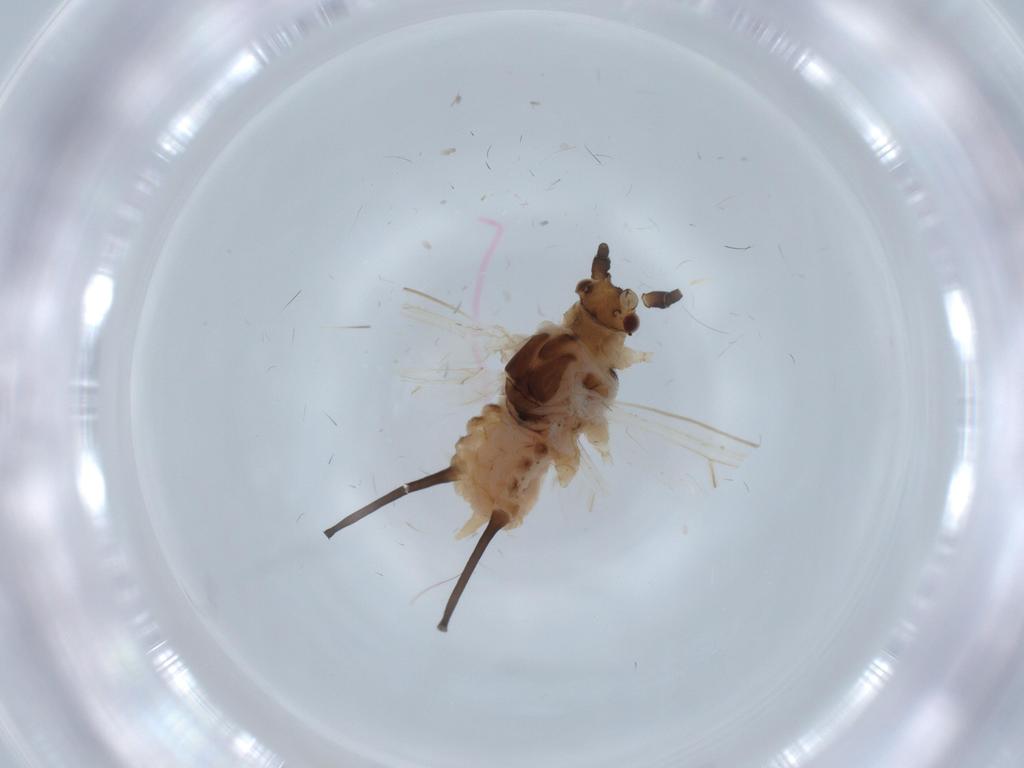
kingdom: Animalia
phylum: Arthropoda
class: Insecta
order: Hemiptera
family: Aphididae
